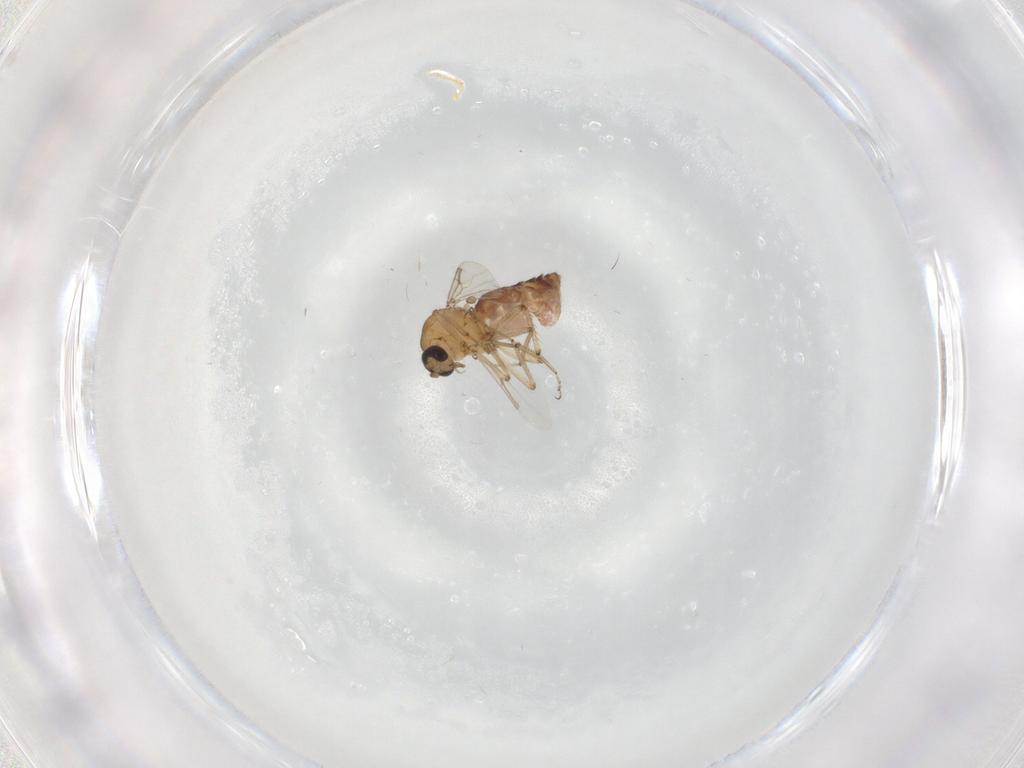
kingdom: Animalia
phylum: Arthropoda
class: Insecta
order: Diptera
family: Ceratopogonidae
